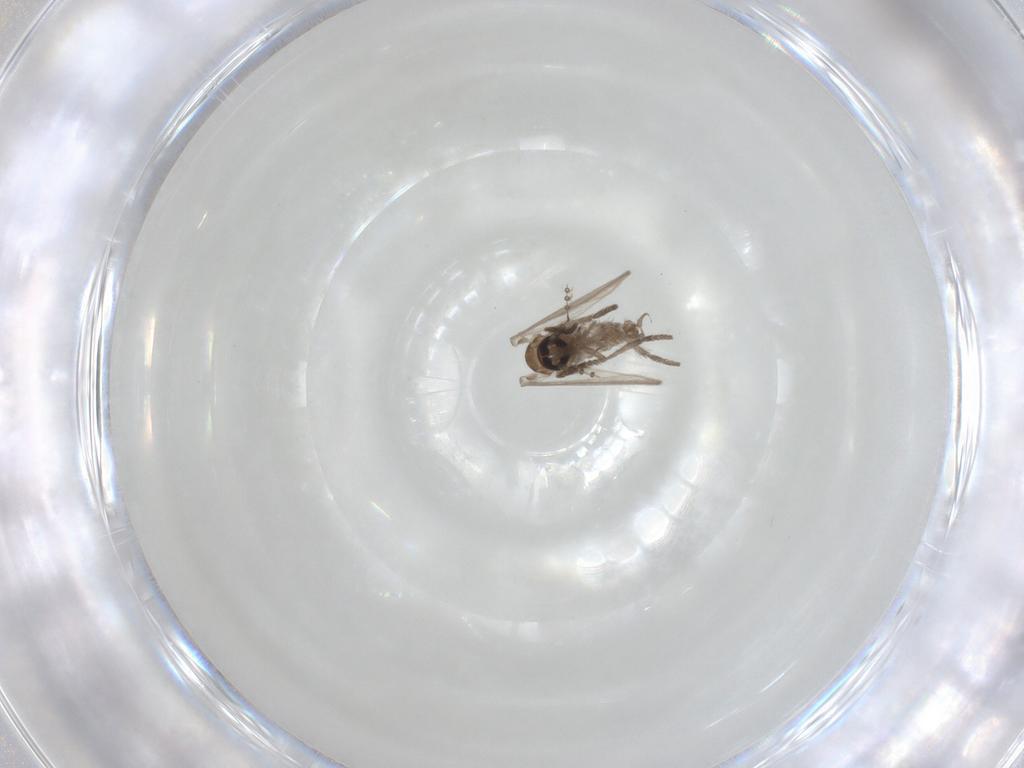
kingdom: Animalia
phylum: Arthropoda
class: Insecta
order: Diptera
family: Psychodidae
